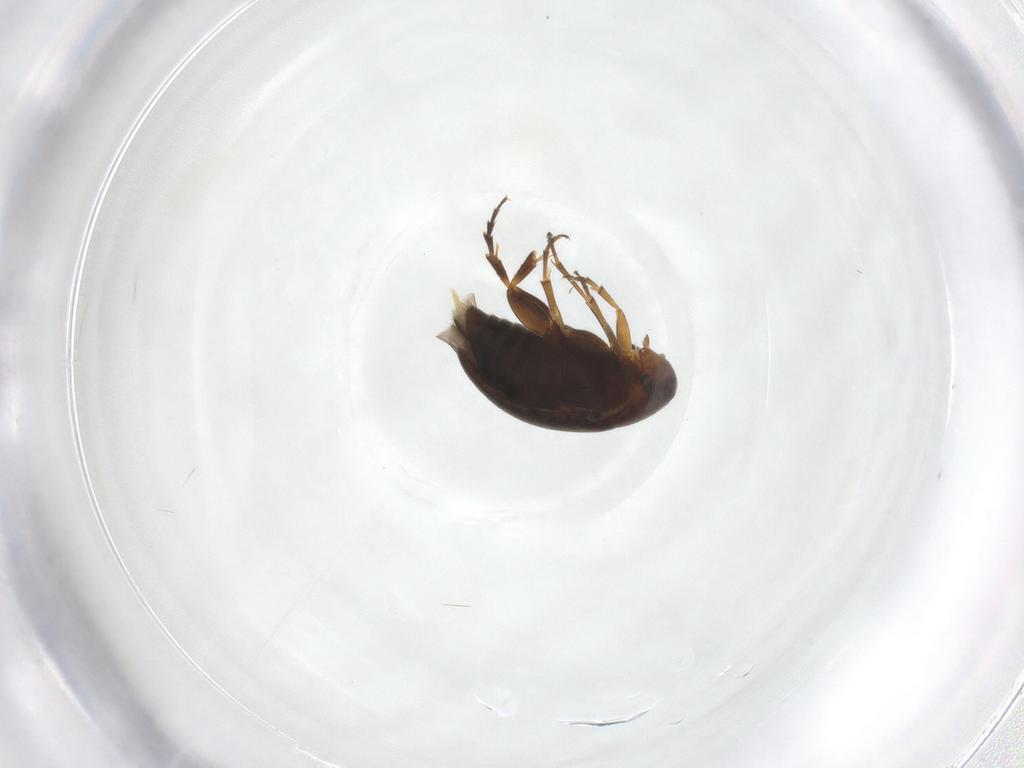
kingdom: Animalia
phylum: Arthropoda
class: Insecta
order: Coleoptera
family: Scraptiidae
